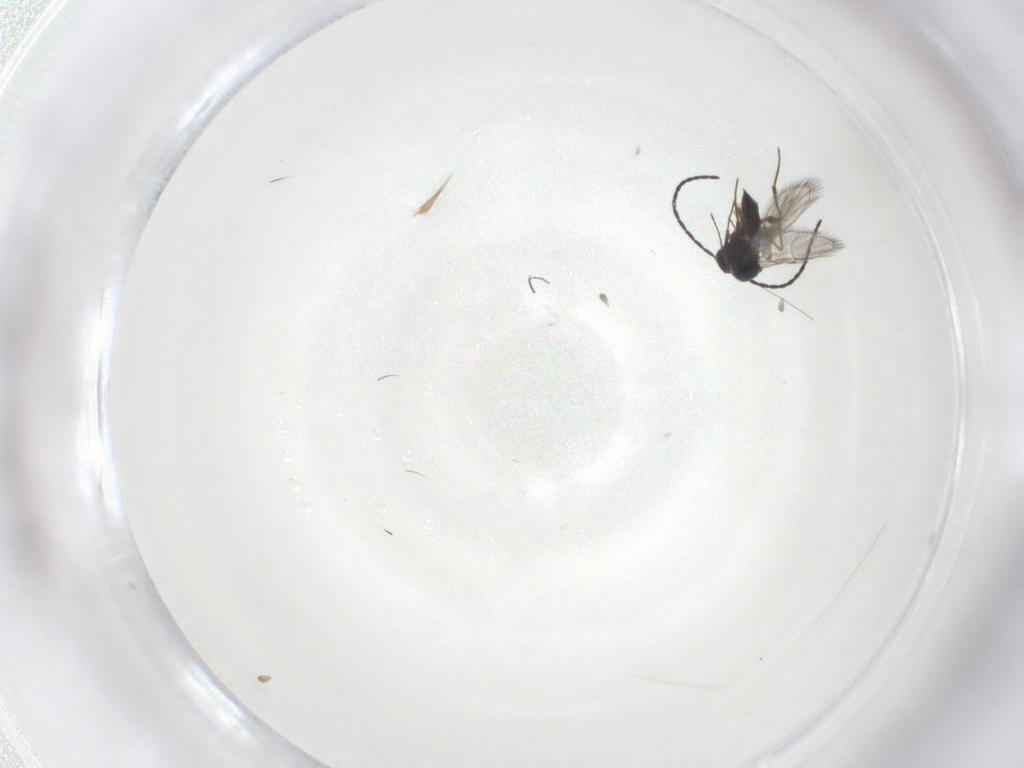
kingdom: Animalia
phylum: Arthropoda
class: Insecta
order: Hymenoptera
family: Figitidae
